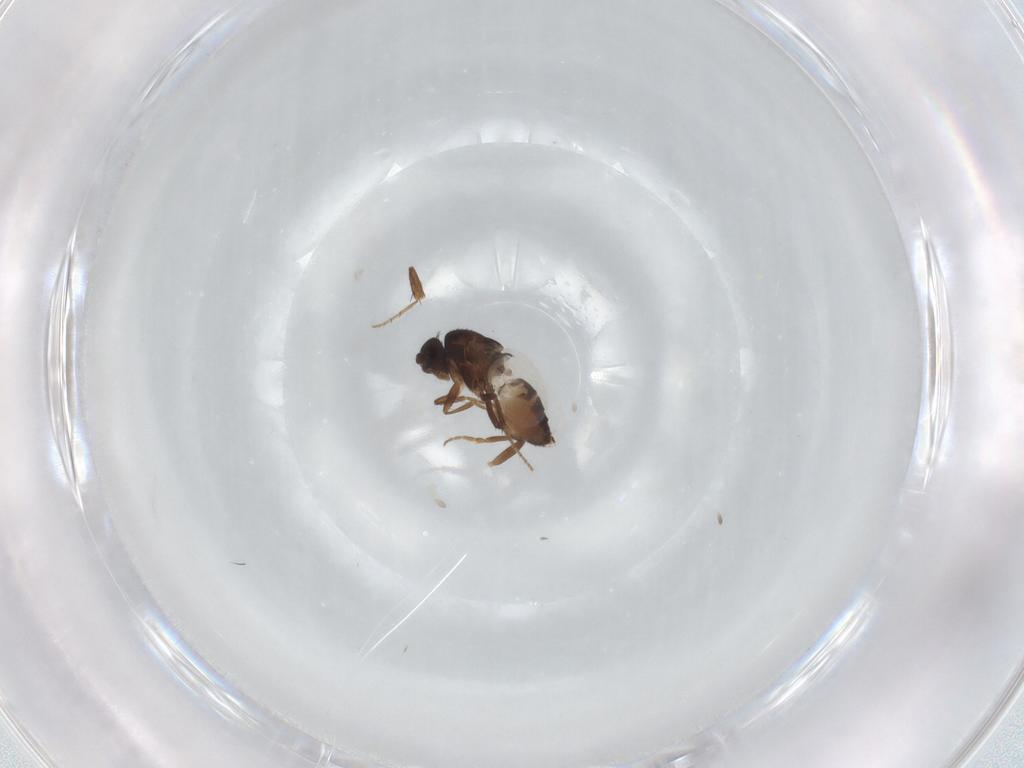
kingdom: Animalia
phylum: Arthropoda
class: Insecta
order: Diptera
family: Sphaeroceridae
